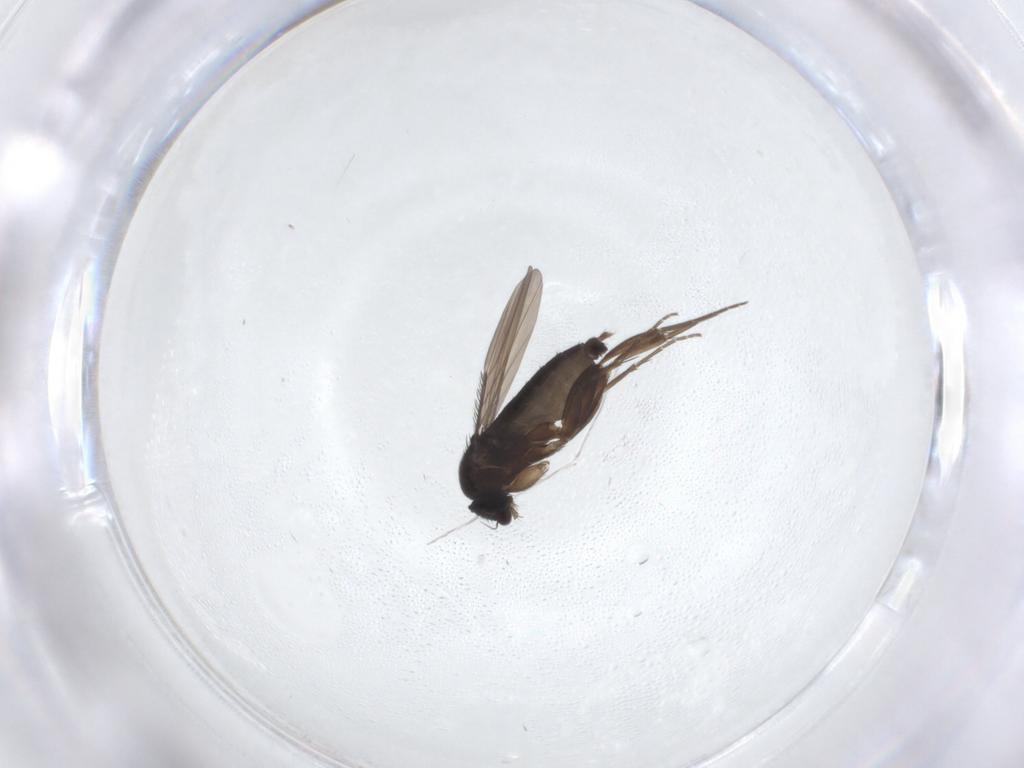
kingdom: Animalia
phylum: Arthropoda
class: Insecta
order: Diptera
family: Phoridae
